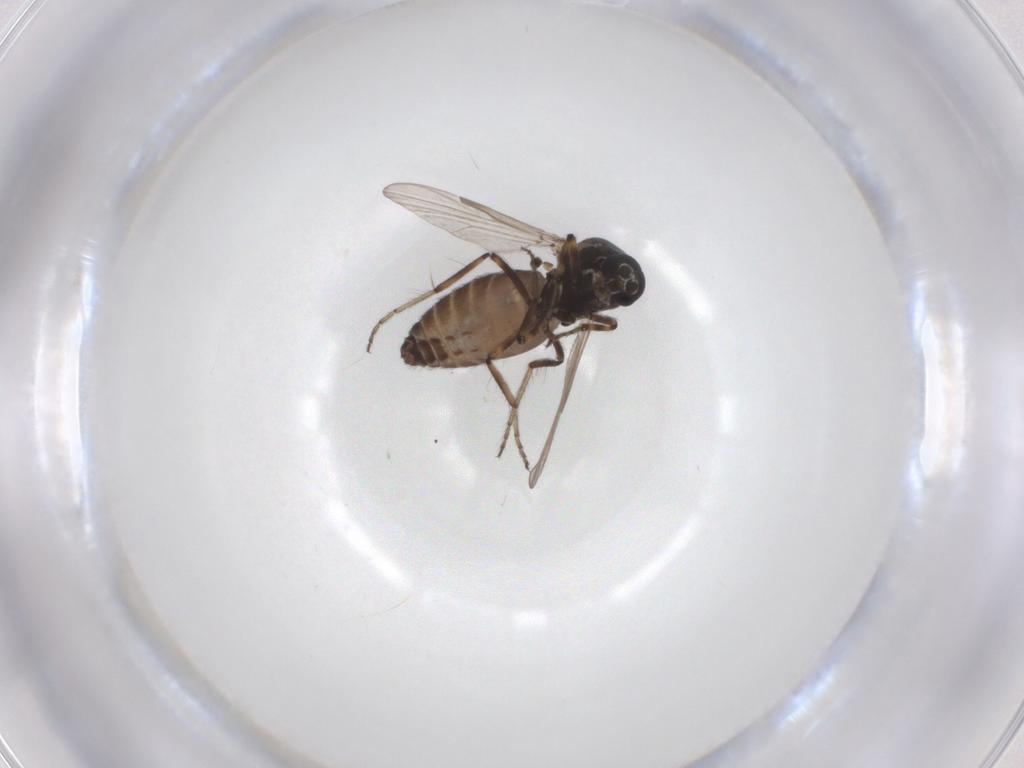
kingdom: Animalia
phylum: Arthropoda
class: Insecta
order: Diptera
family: Ceratopogonidae
